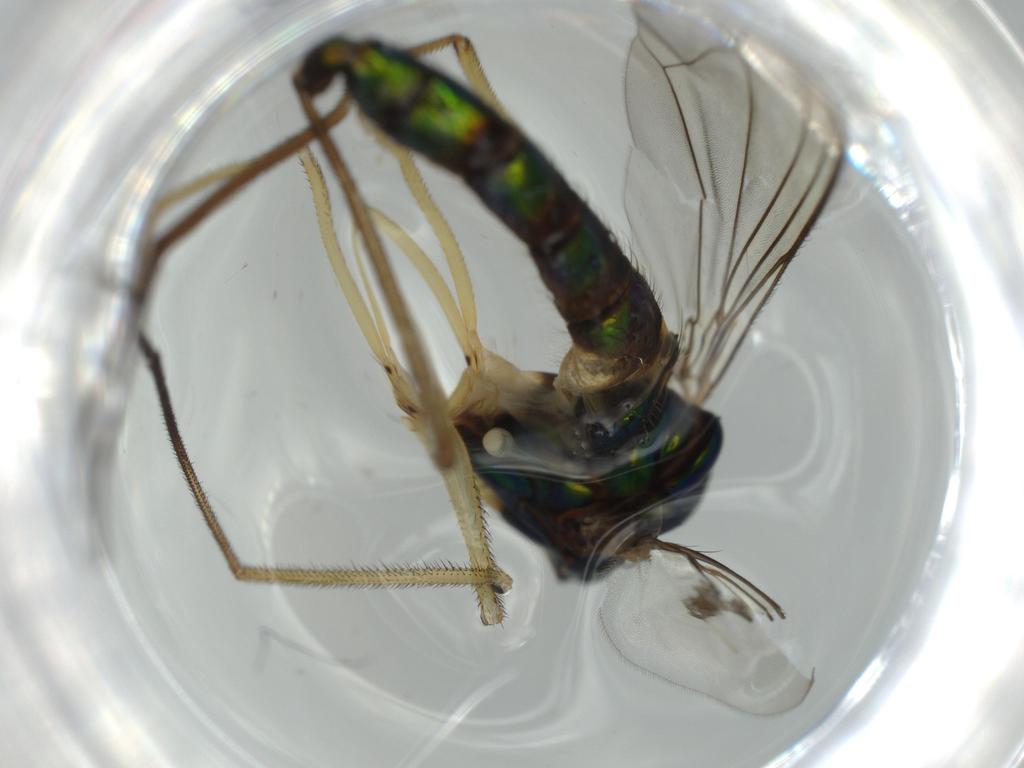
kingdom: Animalia
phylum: Arthropoda
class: Insecta
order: Diptera
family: Dolichopodidae
